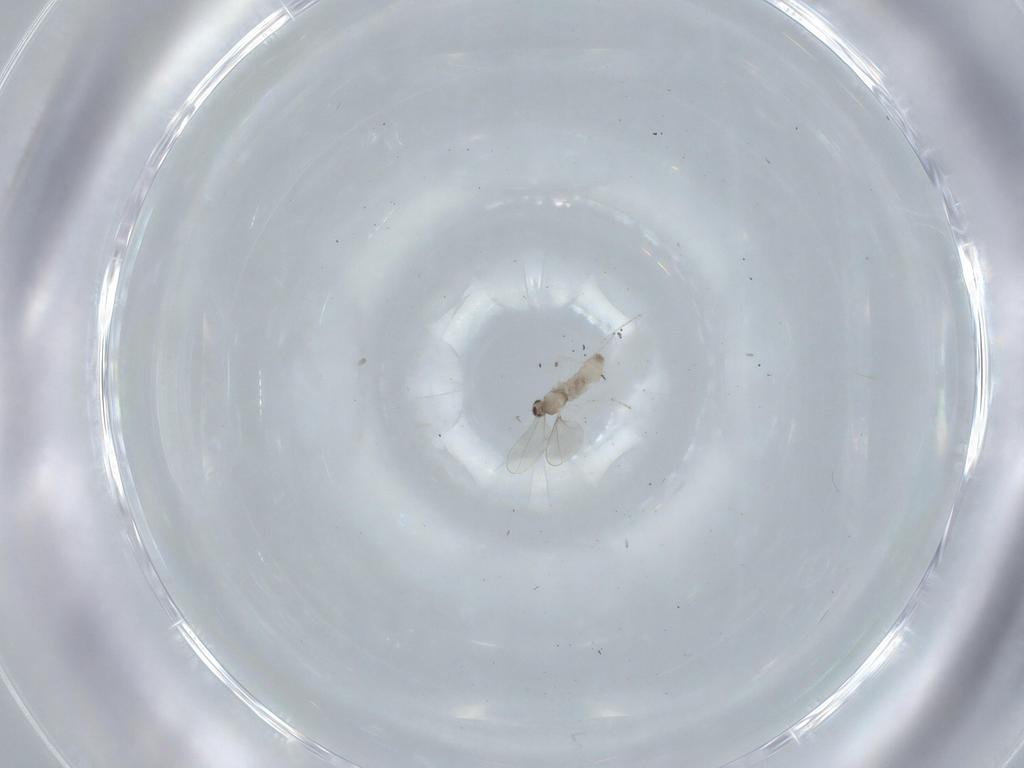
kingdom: Animalia
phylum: Arthropoda
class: Insecta
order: Diptera
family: Cecidomyiidae
